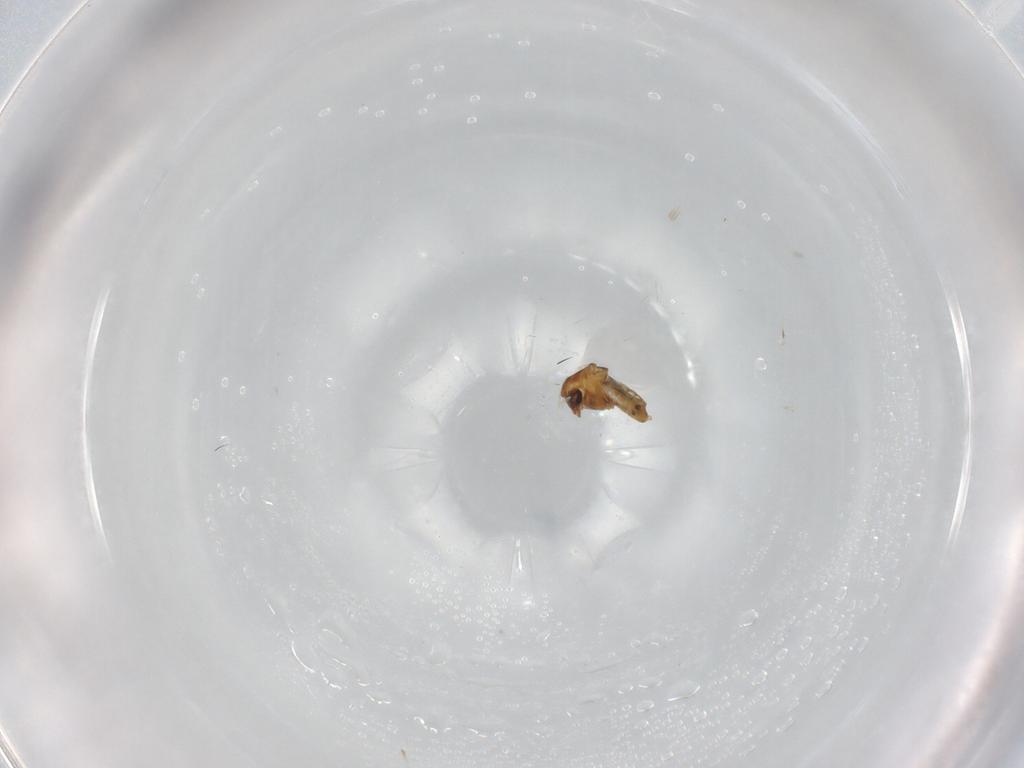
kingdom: Animalia
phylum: Arthropoda
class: Insecta
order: Diptera
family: Chironomidae
